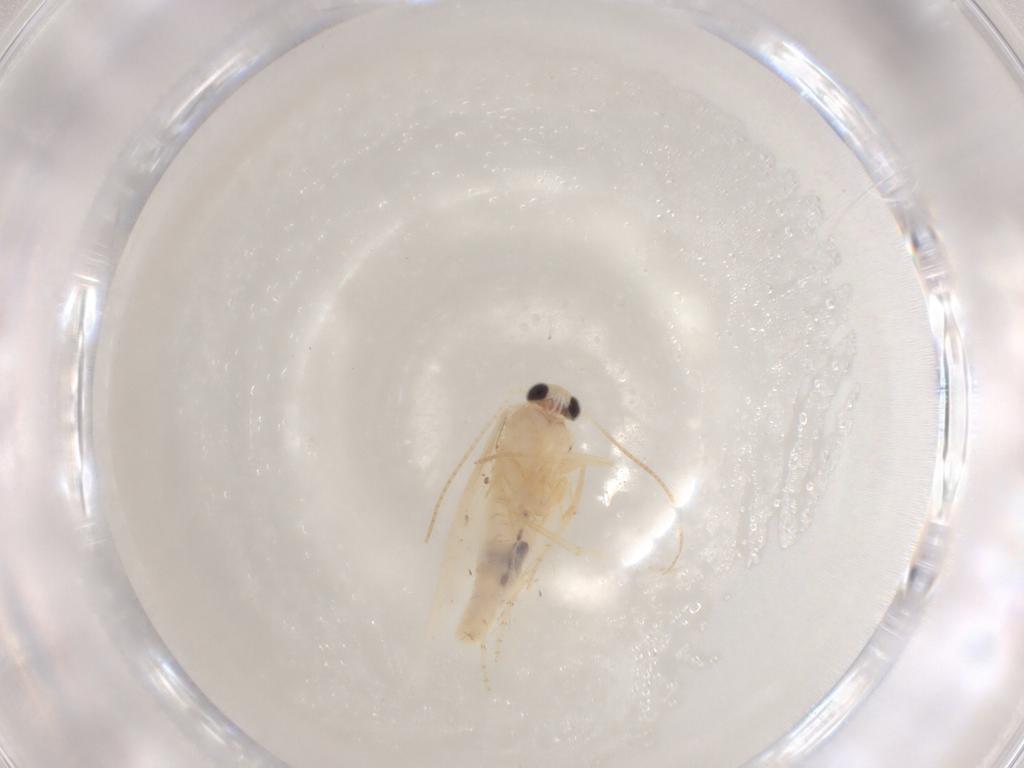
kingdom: Animalia
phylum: Arthropoda
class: Insecta
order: Lepidoptera
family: Gelechiidae
